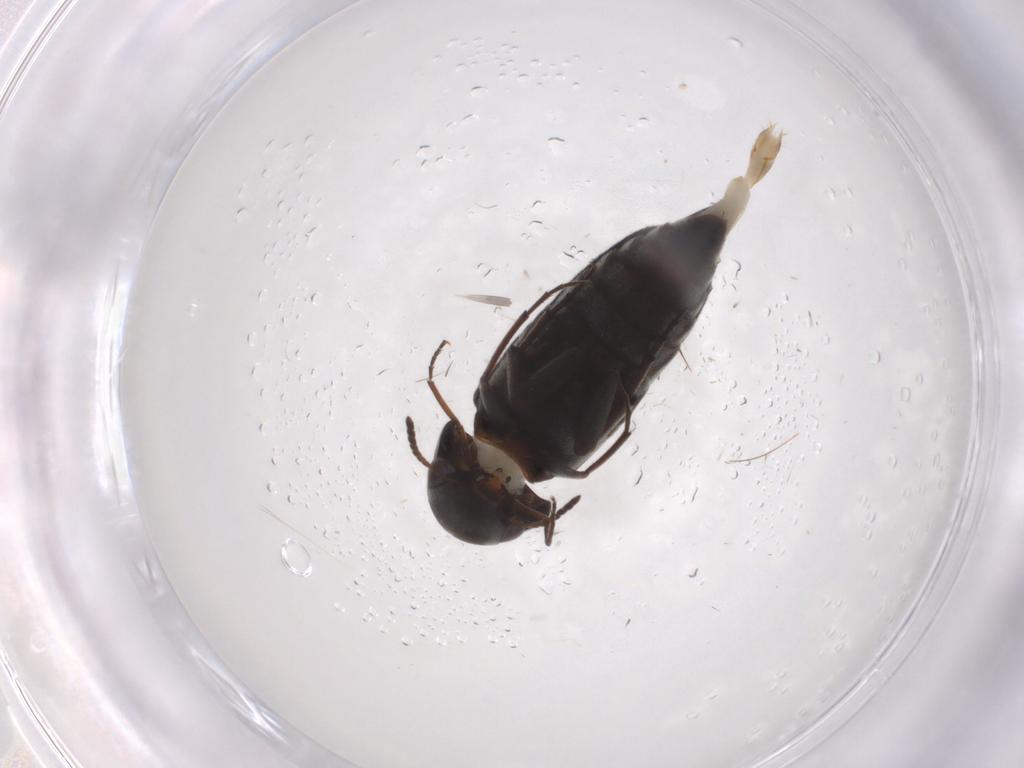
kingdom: Animalia
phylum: Arthropoda
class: Insecta
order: Coleoptera
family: Mordellidae
